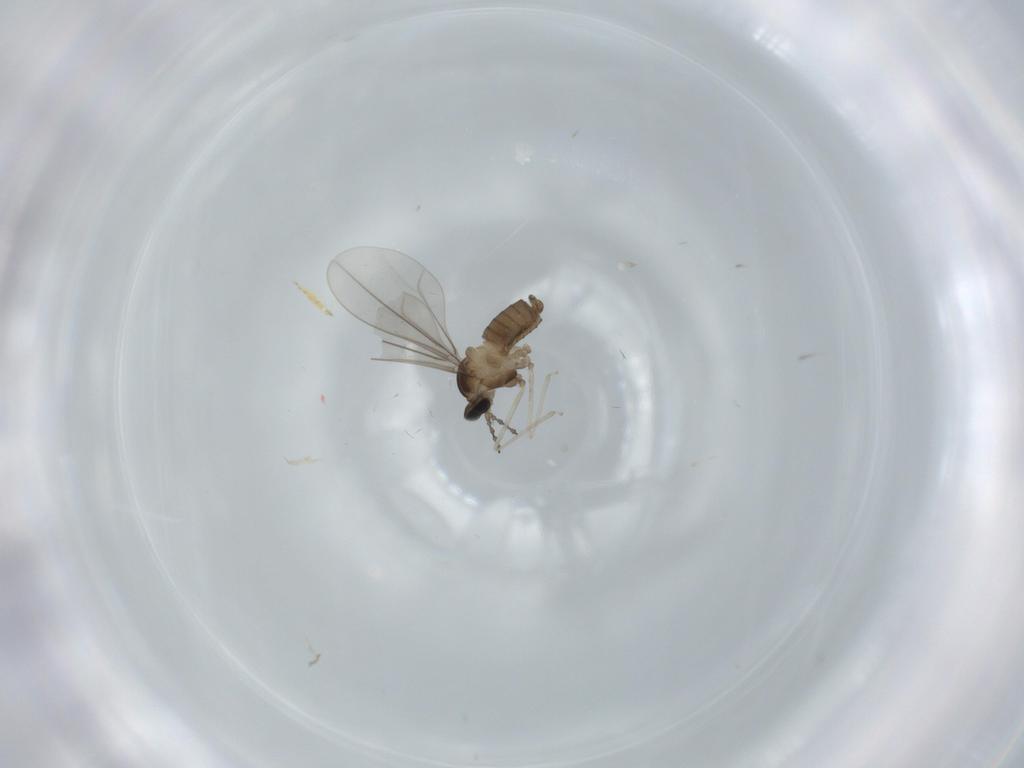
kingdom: Animalia
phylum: Arthropoda
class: Insecta
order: Diptera
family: Cecidomyiidae
